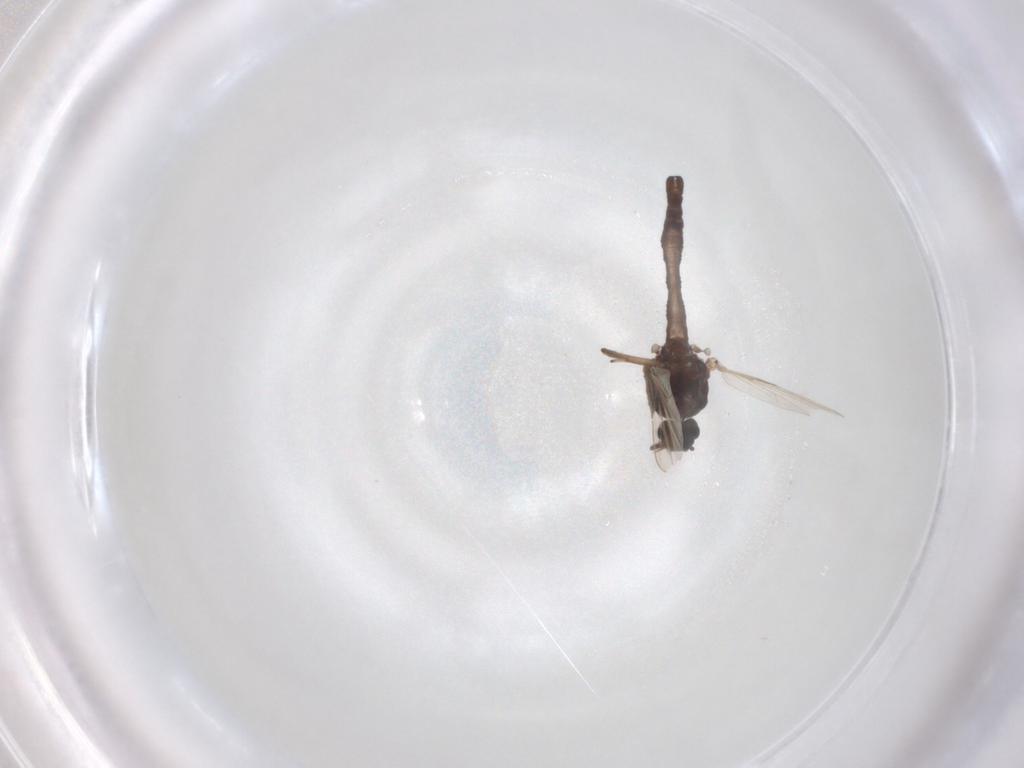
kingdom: Animalia
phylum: Arthropoda
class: Insecta
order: Diptera
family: Ceratopogonidae
